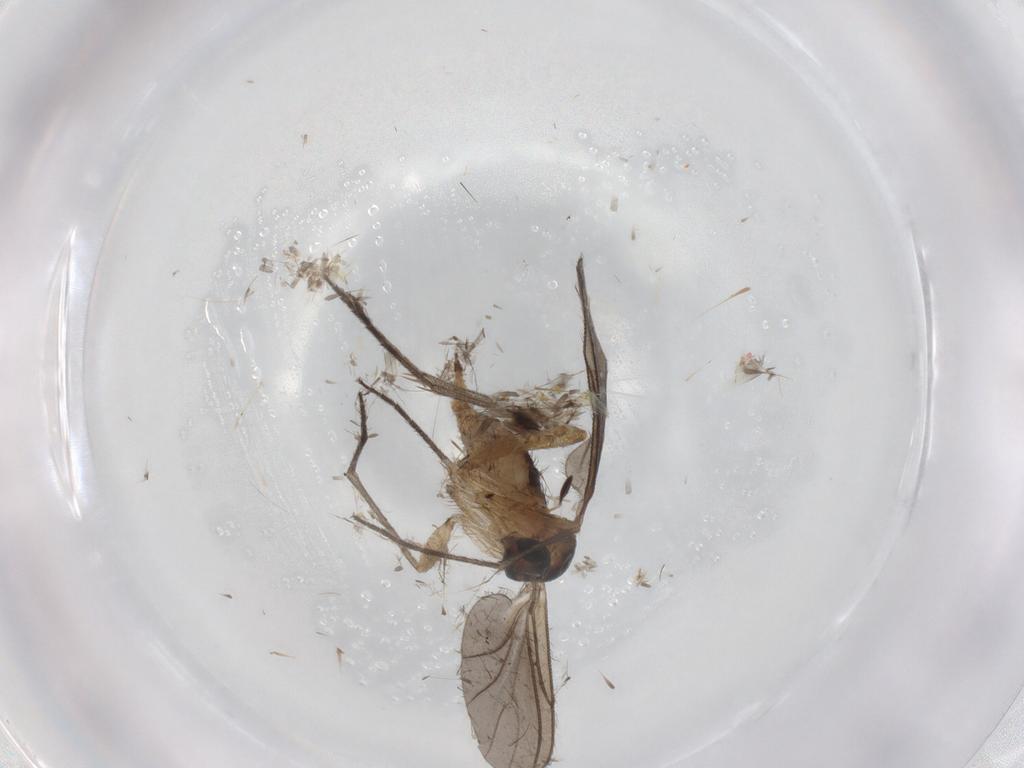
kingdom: Animalia
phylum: Arthropoda
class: Insecta
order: Diptera
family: Sciaridae
